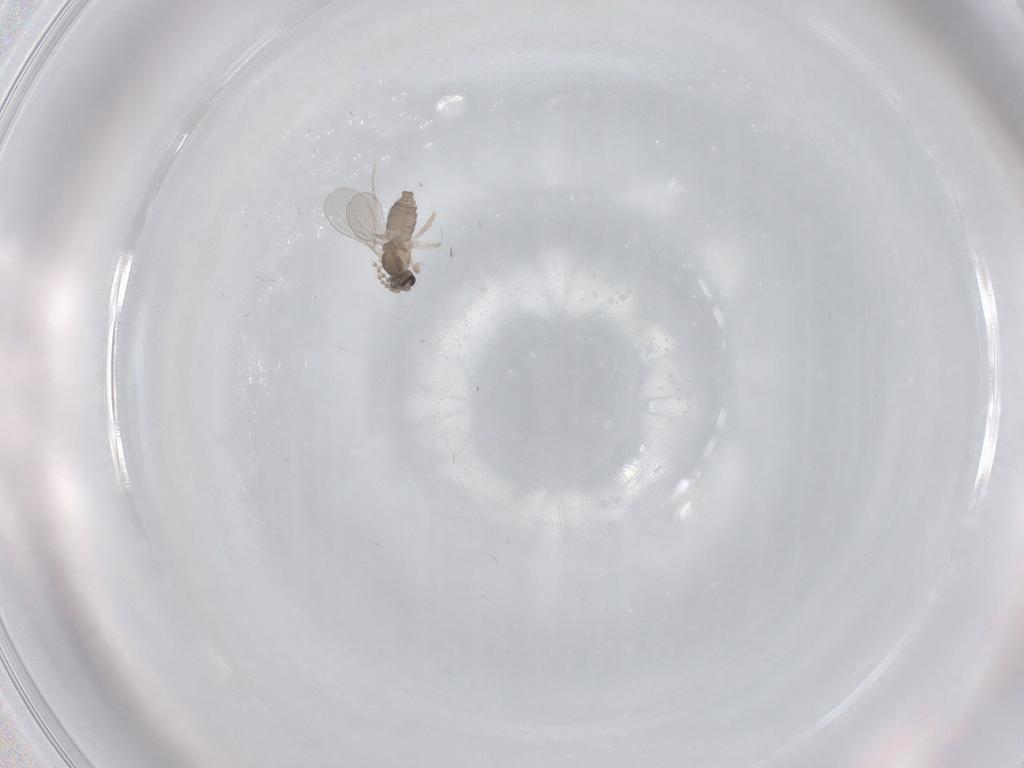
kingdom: Animalia
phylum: Arthropoda
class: Insecta
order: Diptera
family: Cecidomyiidae
